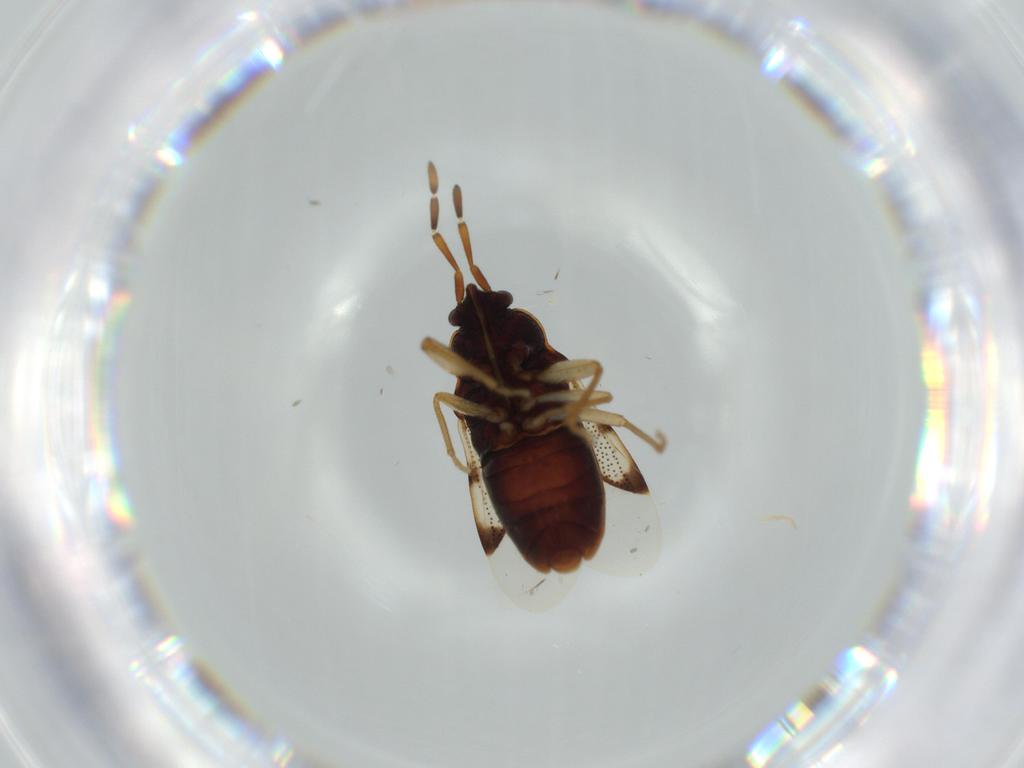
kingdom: Animalia
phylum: Arthropoda
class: Insecta
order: Hemiptera
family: Rhyparochromidae
